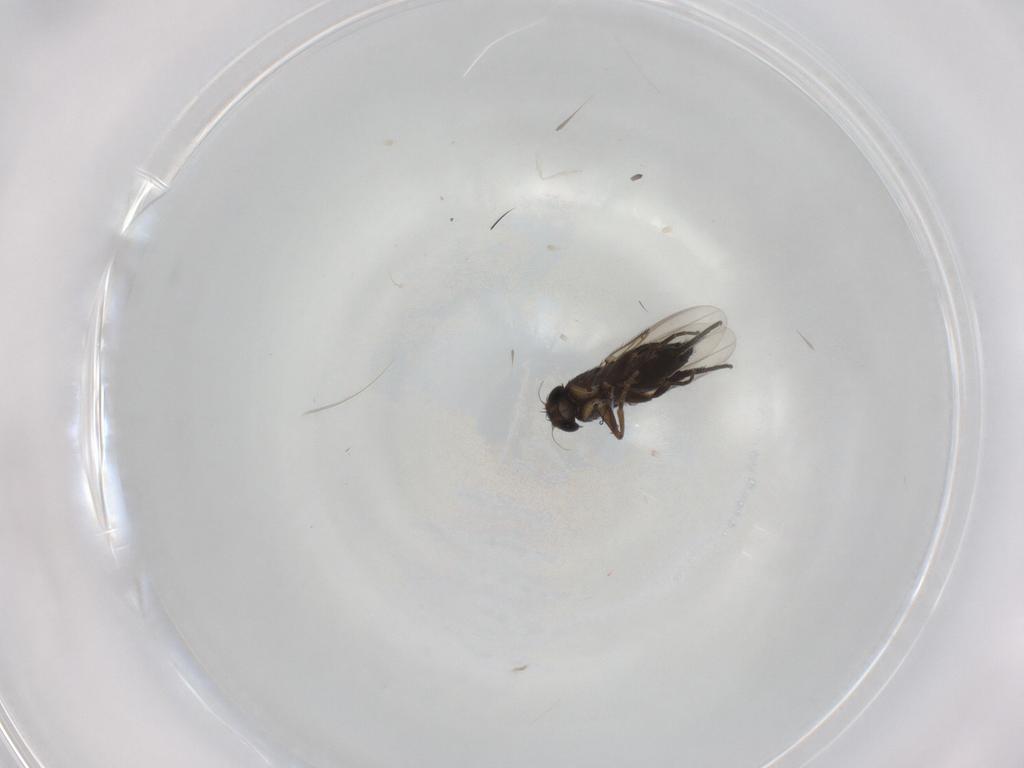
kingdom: Animalia
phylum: Arthropoda
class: Insecta
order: Diptera
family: Phoridae
